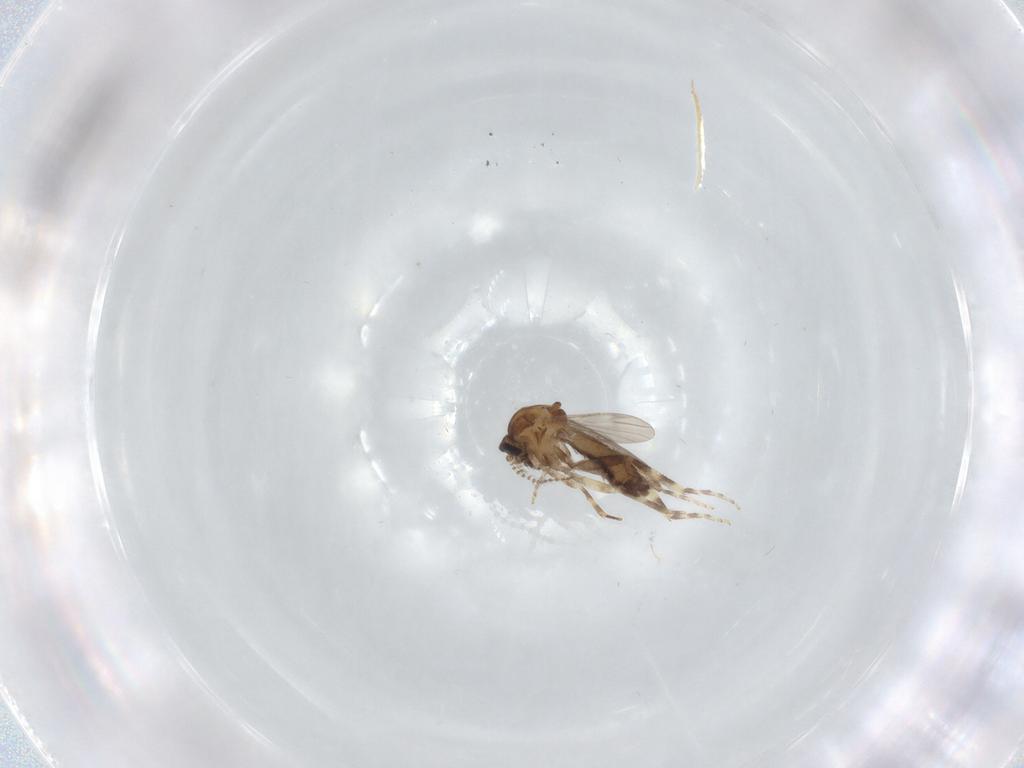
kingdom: Animalia
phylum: Arthropoda
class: Insecta
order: Diptera
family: Ceratopogonidae
